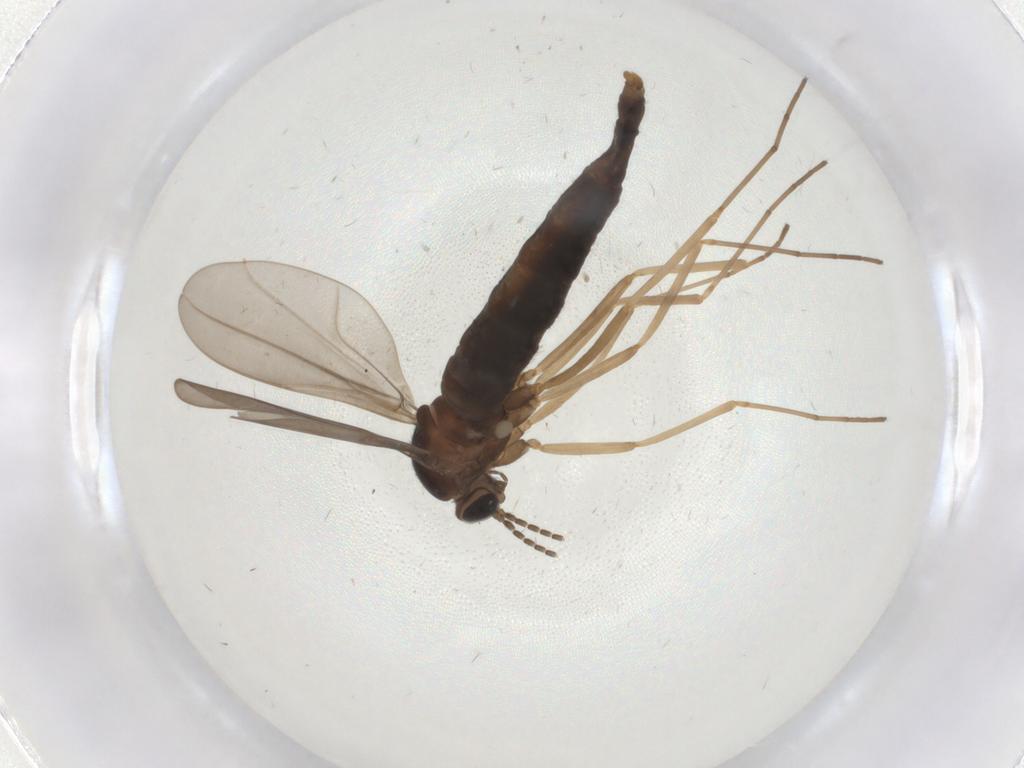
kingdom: Animalia
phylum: Arthropoda
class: Insecta
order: Diptera
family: Cecidomyiidae
